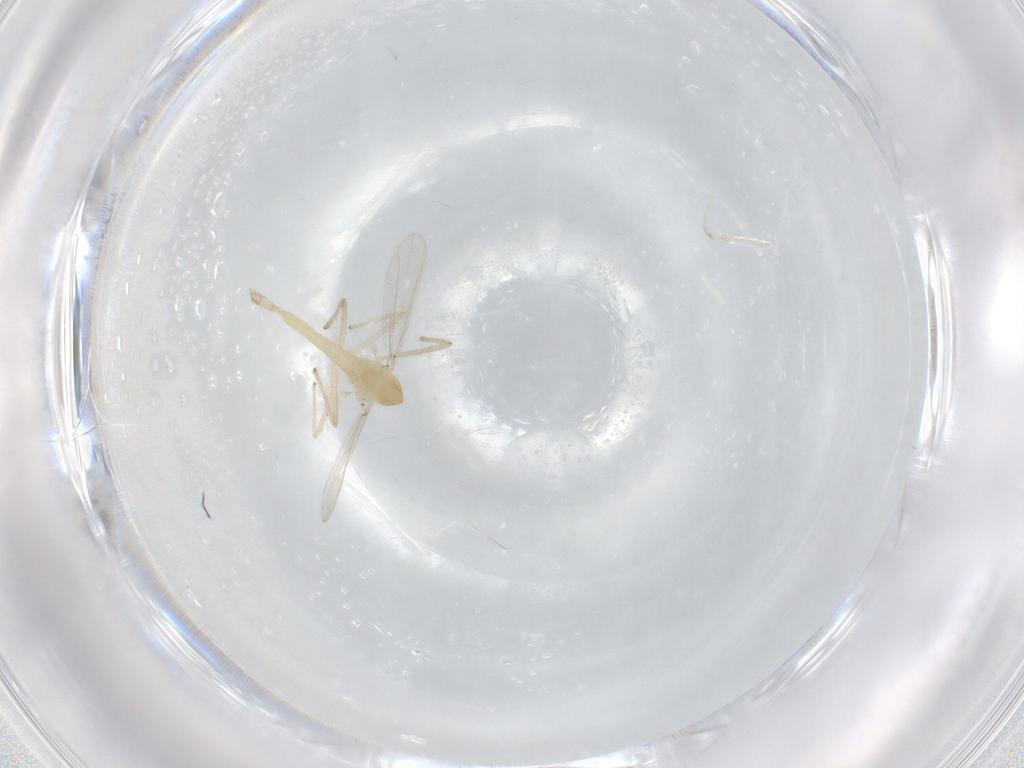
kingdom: Animalia
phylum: Arthropoda
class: Insecta
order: Diptera
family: Chironomidae
